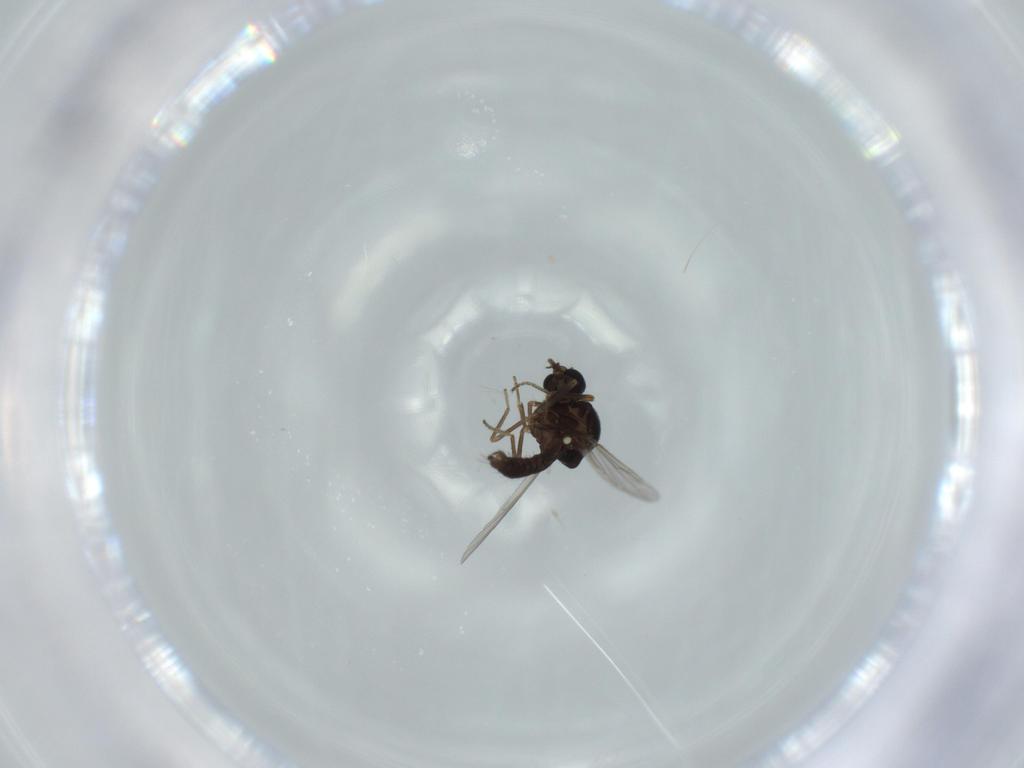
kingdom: Animalia
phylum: Arthropoda
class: Insecta
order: Diptera
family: Ceratopogonidae
